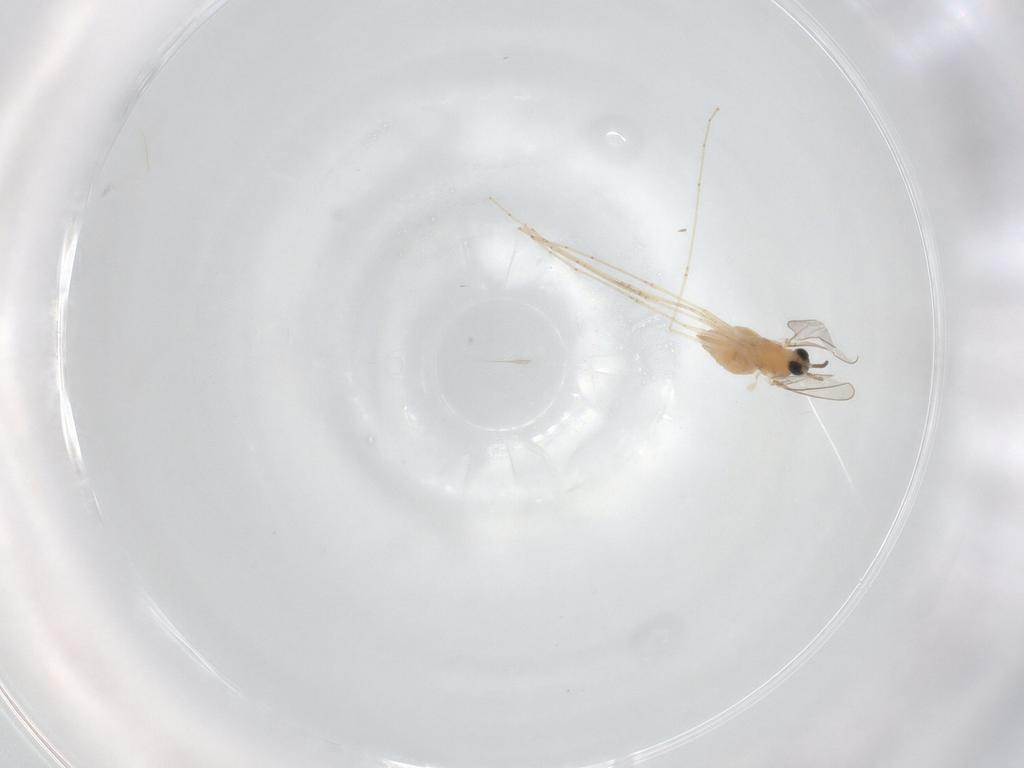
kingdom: Animalia
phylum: Arthropoda
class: Insecta
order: Diptera
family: Cecidomyiidae
